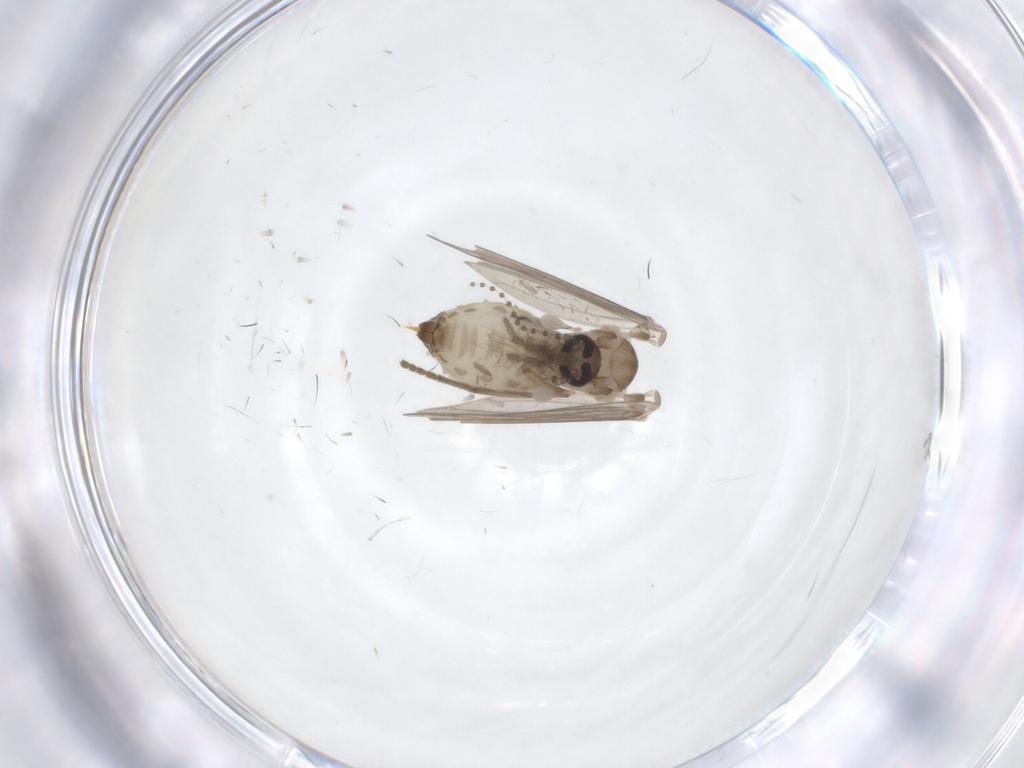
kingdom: Animalia
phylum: Arthropoda
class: Insecta
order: Diptera
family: Psychodidae
